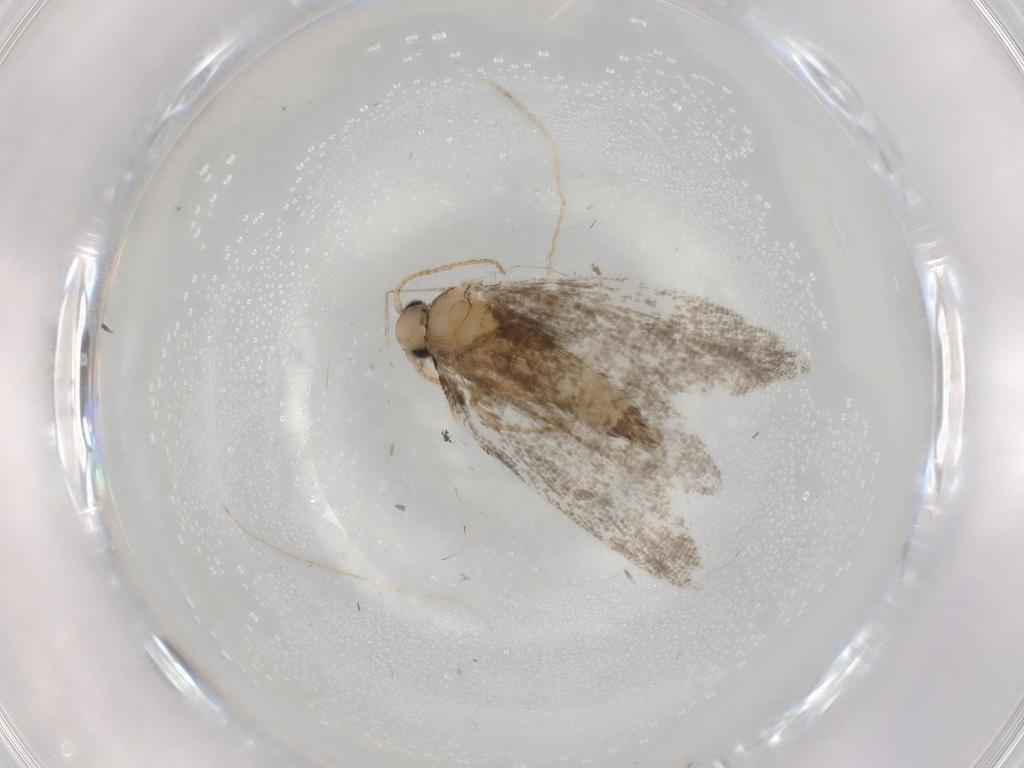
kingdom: Animalia
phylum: Arthropoda
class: Insecta
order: Lepidoptera
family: Psychidae
